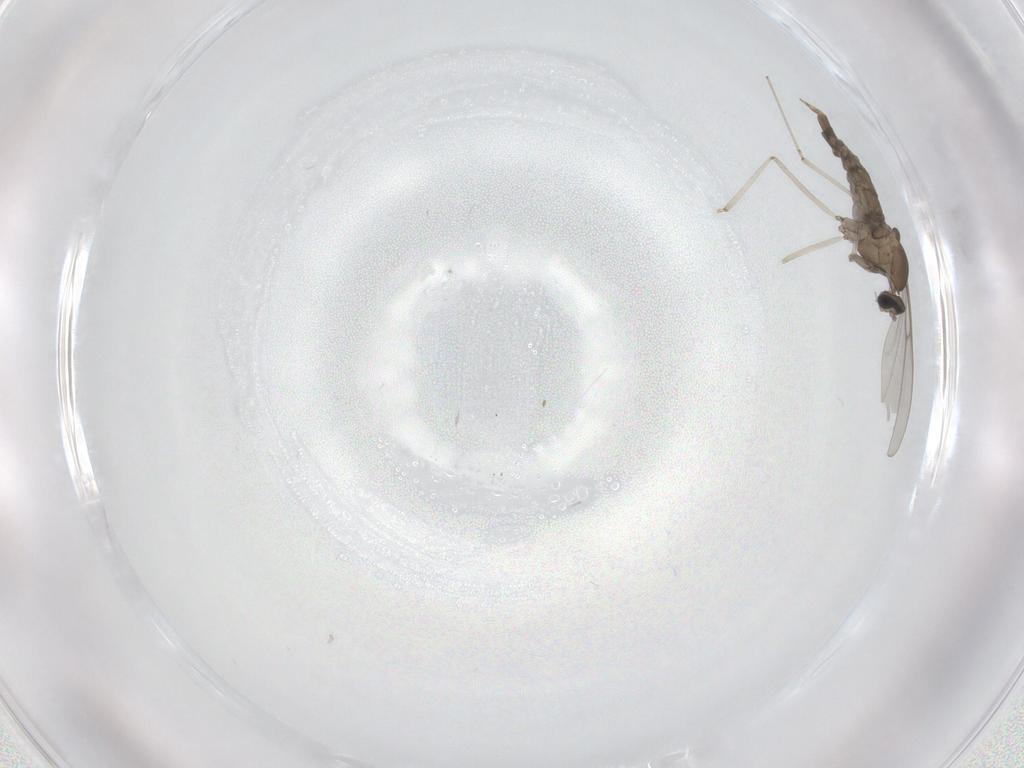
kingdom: Animalia
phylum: Arthropoda
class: Insecta
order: Diptera
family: Cecidomyiidae
